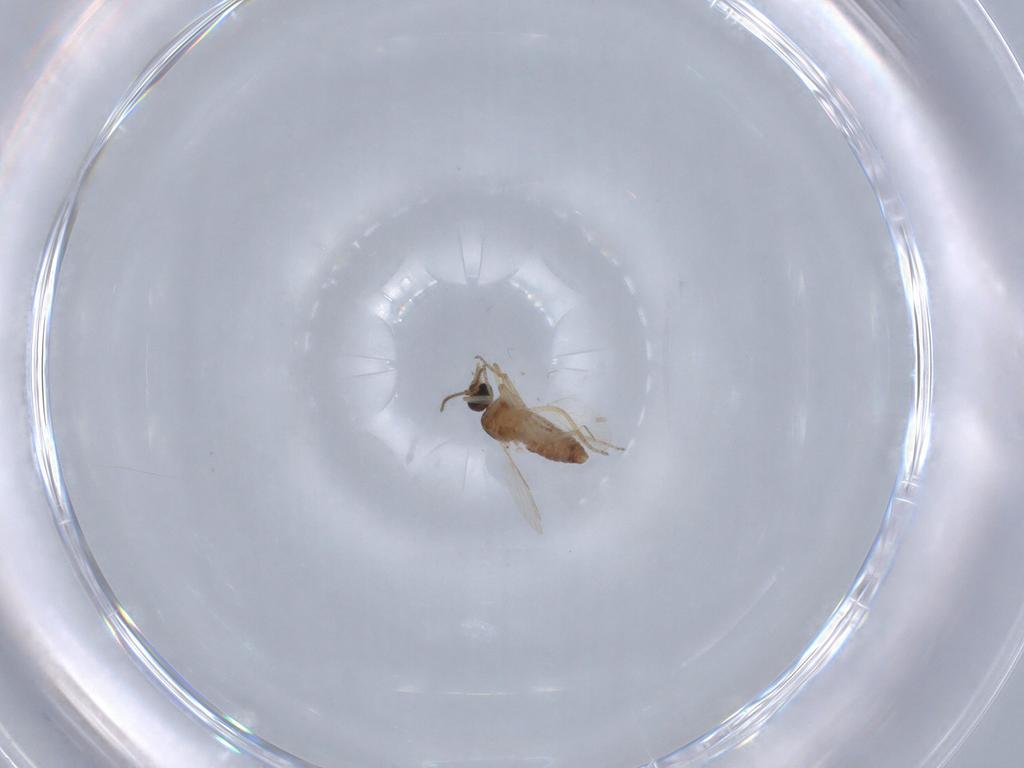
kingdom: Animalia
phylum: Arthropoda
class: Insecta
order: Diptera
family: Ceratopogonidae
